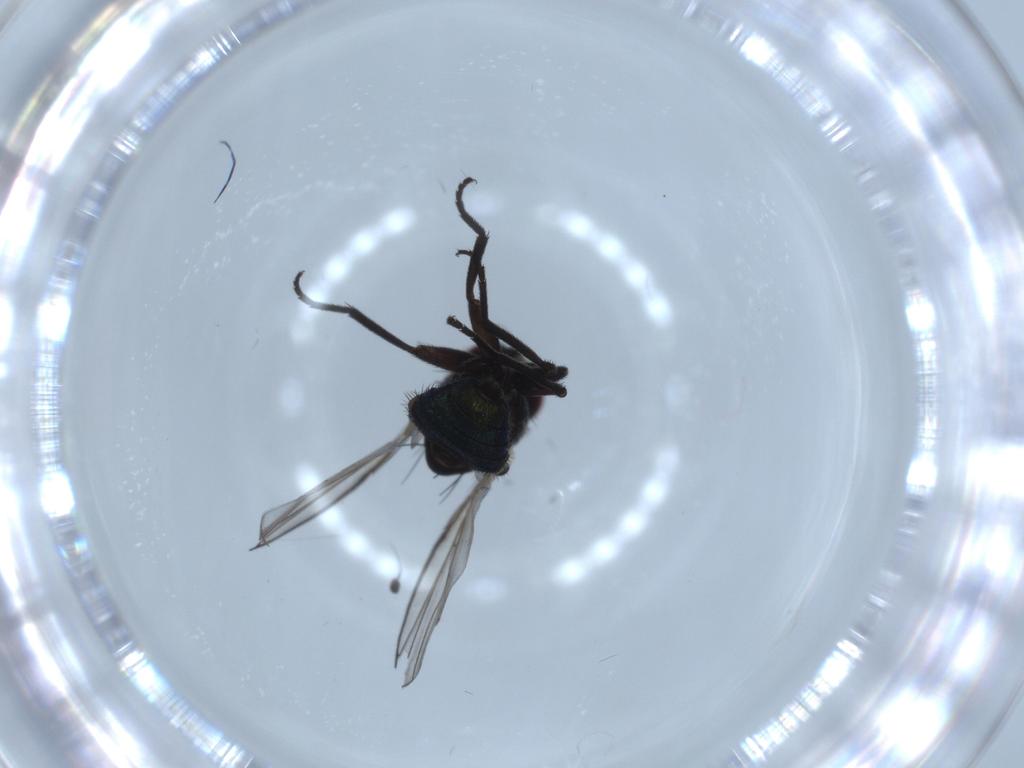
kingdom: Animalia
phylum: Arthropoda
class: Insecta
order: Diptera
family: Agromyzidae
